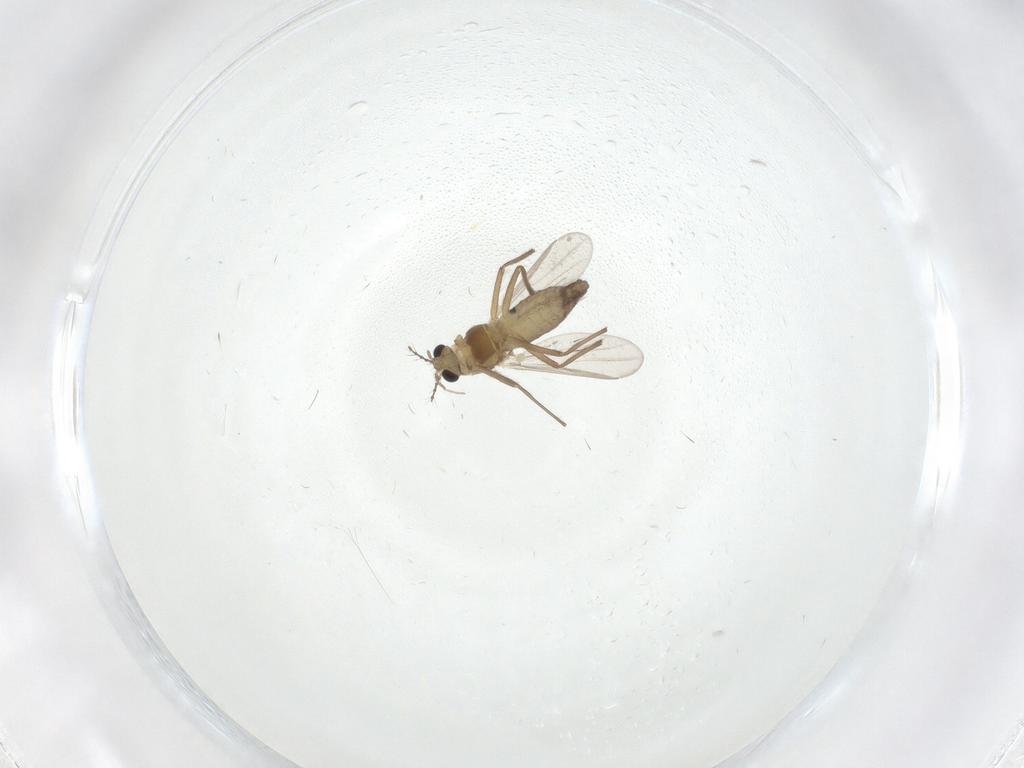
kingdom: Animalia
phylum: Arthropoda
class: Insecta
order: Diptera
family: Chironomidae
